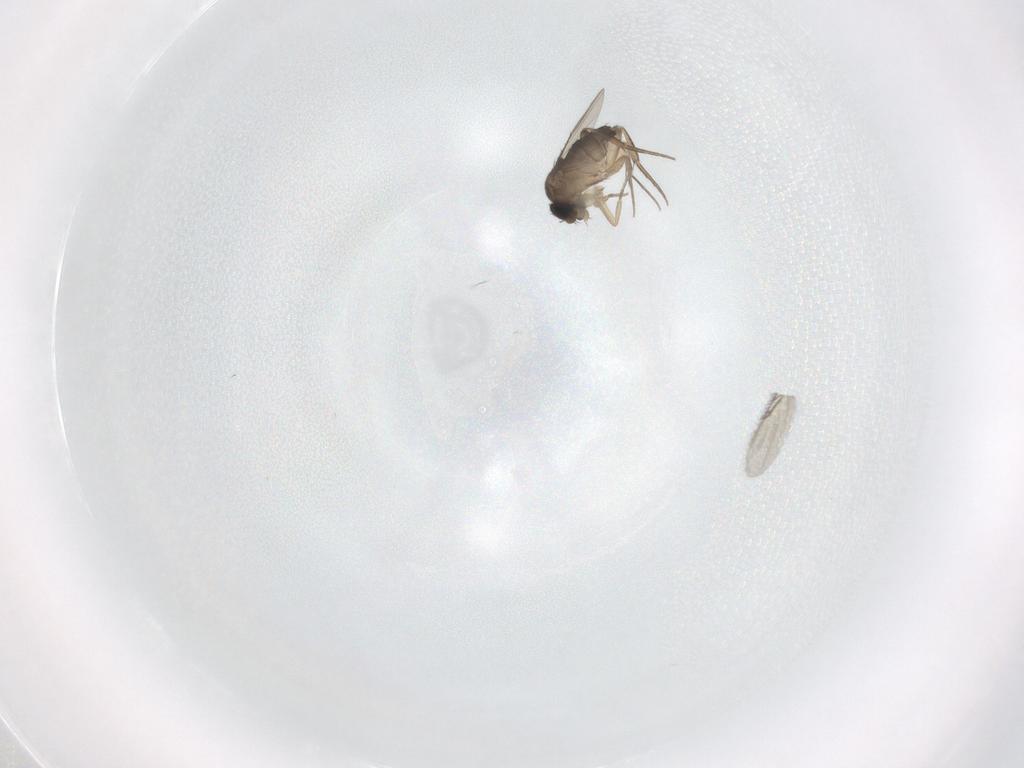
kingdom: Animalia
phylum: Arthropoda
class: Insecta
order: Diptera
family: Phoridae
